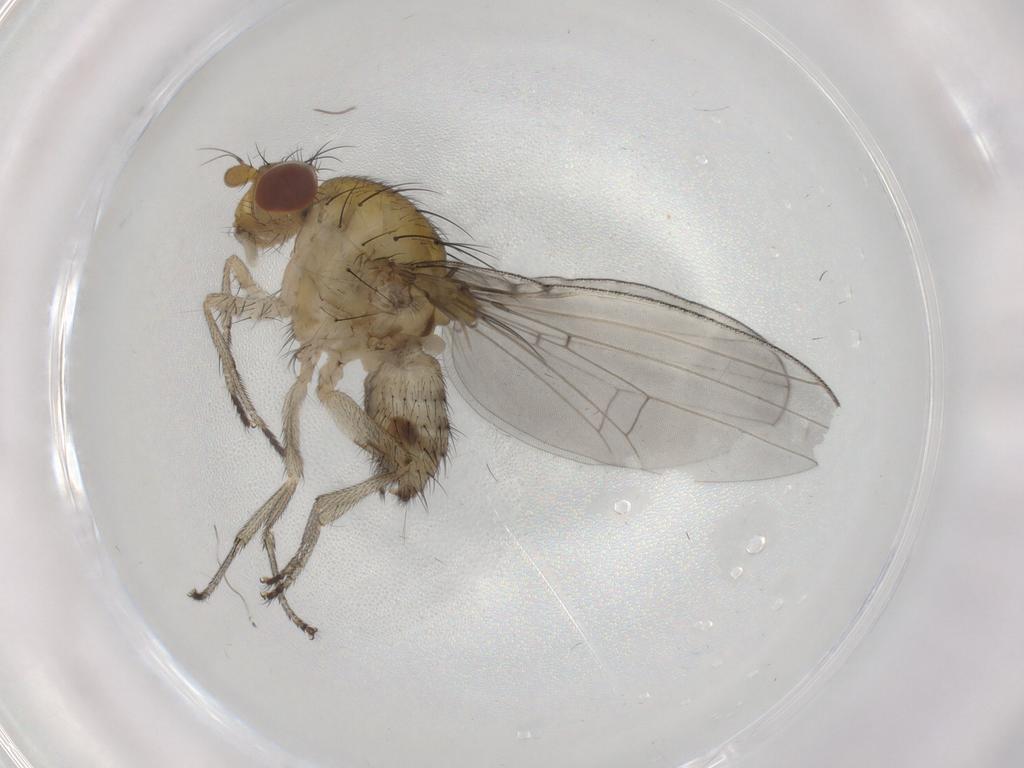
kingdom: Animalia
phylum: Arthropoda
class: Insecta
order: Diptera
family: Chironomidae
